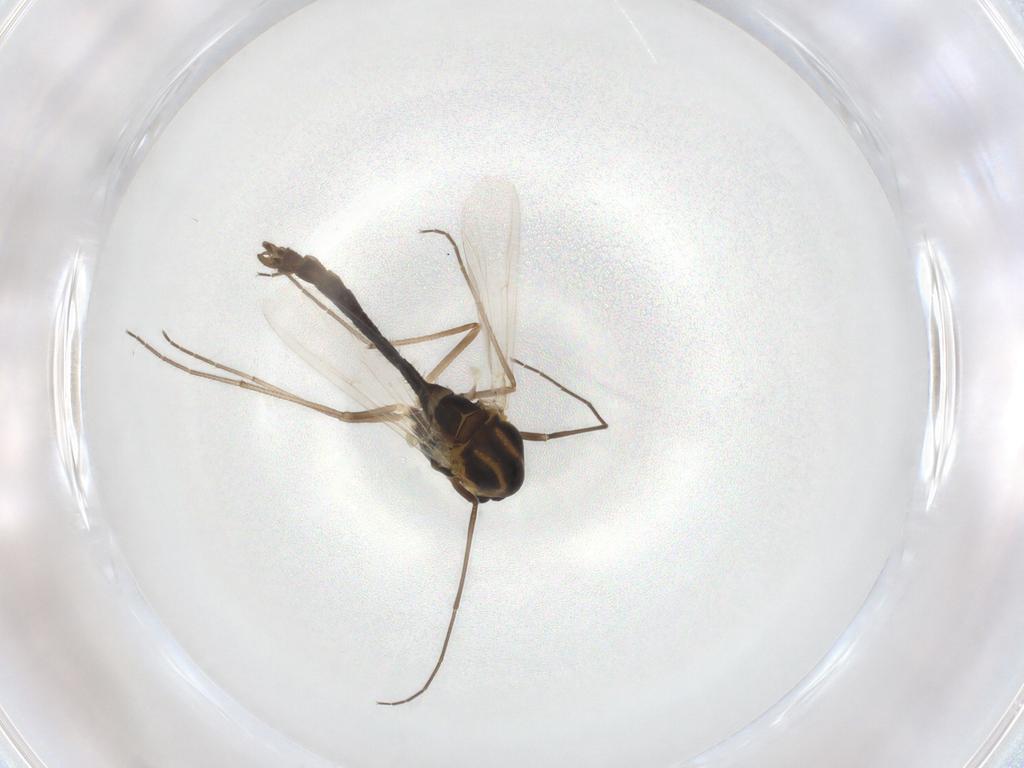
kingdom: Animalia
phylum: Arthropoda
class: Insecta
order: Diptera
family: Chironomidae
